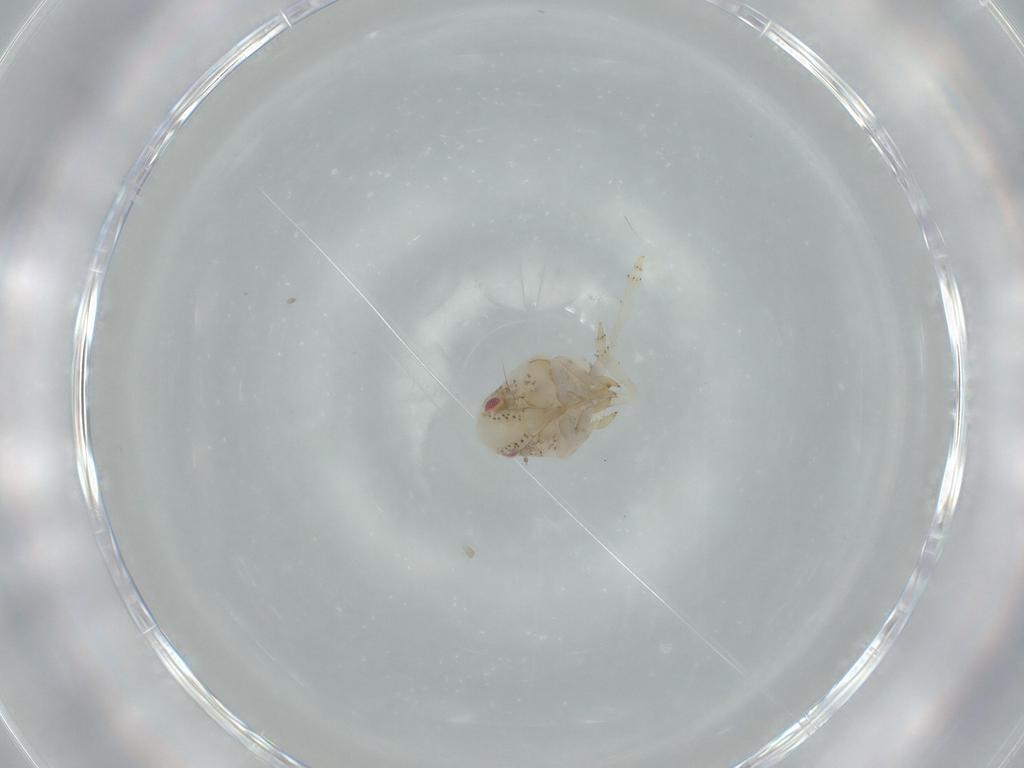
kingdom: Animalia
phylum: Arthropoda
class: Insecta
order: Hemiptera
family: Acanaloniidae
